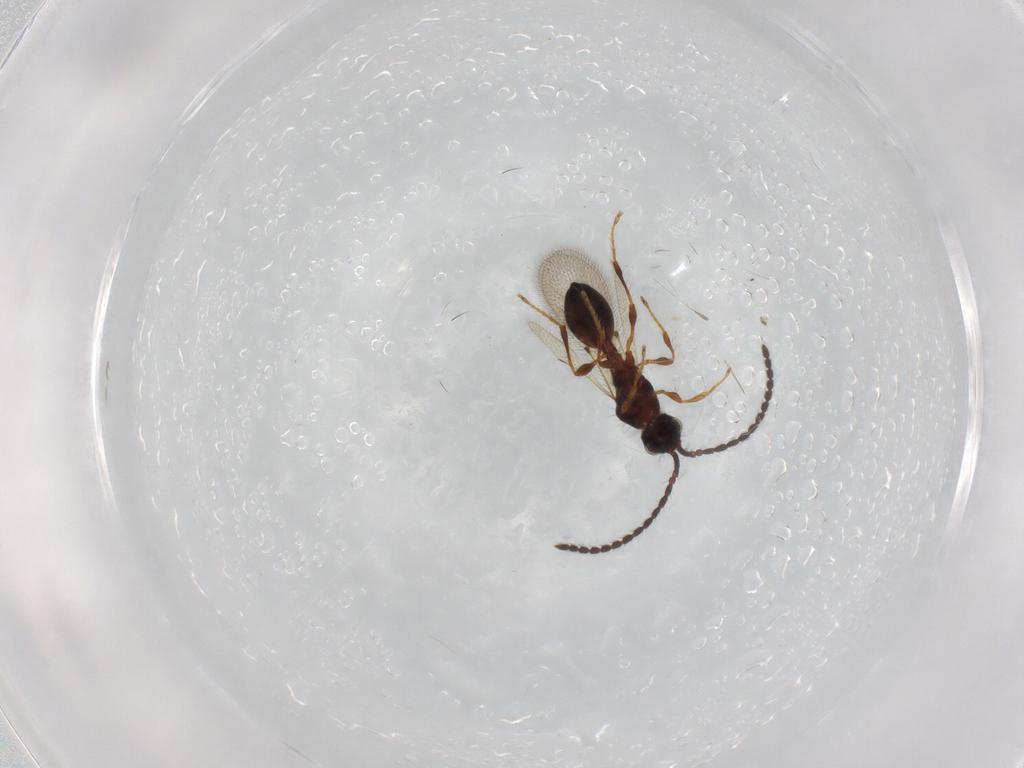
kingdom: Animalia
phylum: Arthropoda
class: Insecta
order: Hymenoptera
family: Diapriidae
